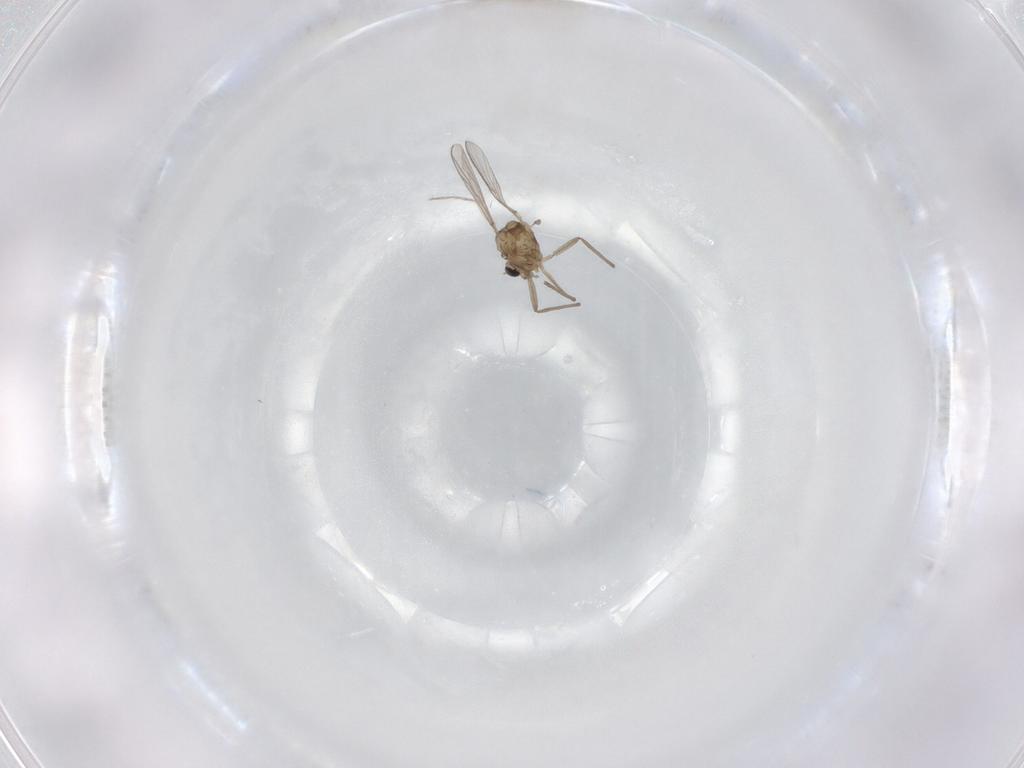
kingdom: Animalia
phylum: Arthropoda
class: Insecta
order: Diptera
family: Chironomidae
